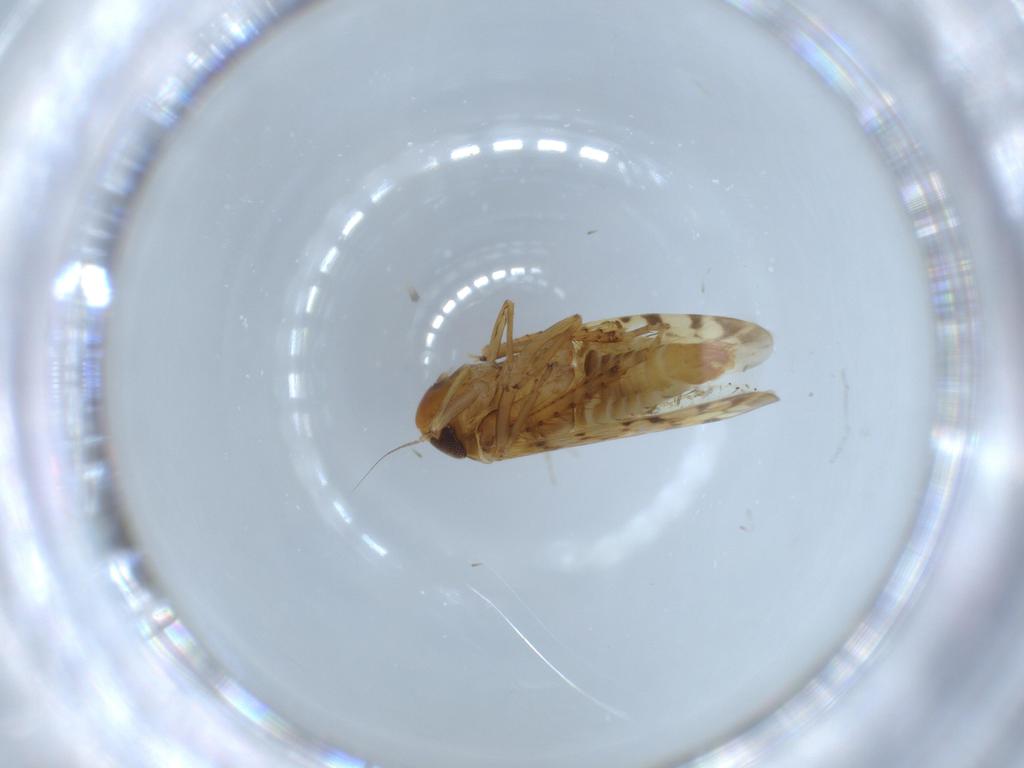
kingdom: Animalia
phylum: Arthropoda
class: Insecta
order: Hemiptera
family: Cicadellidae
